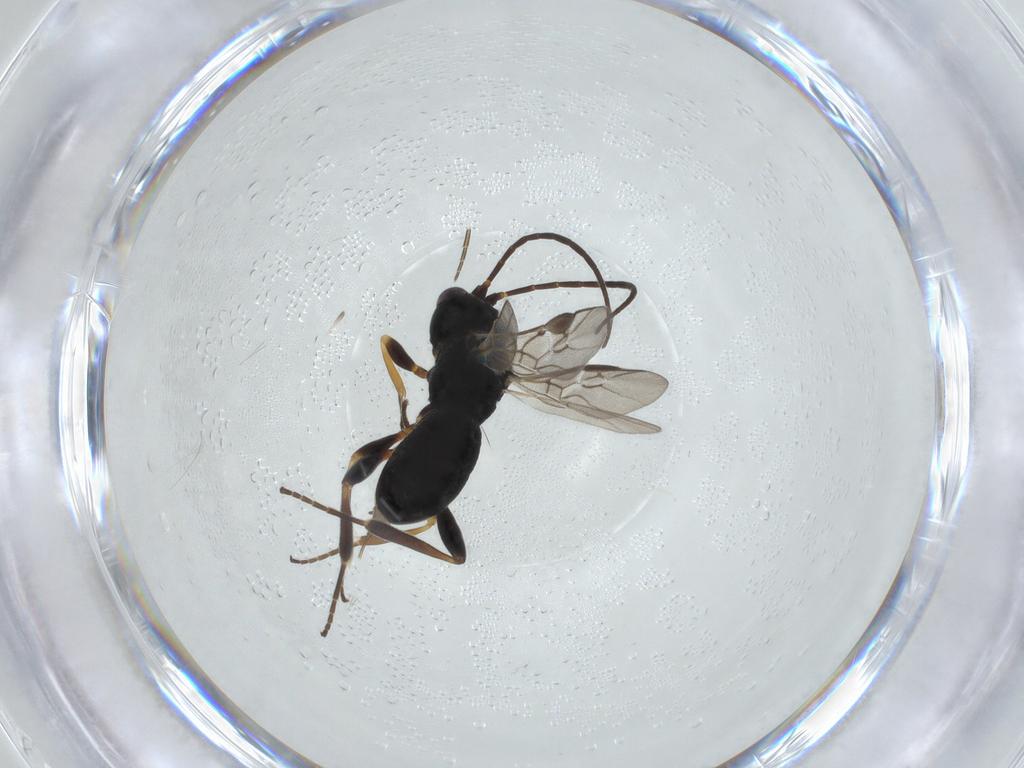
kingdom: Animalia
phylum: Arthropoda
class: Insecta
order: Hymenoptera
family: Braconidae
